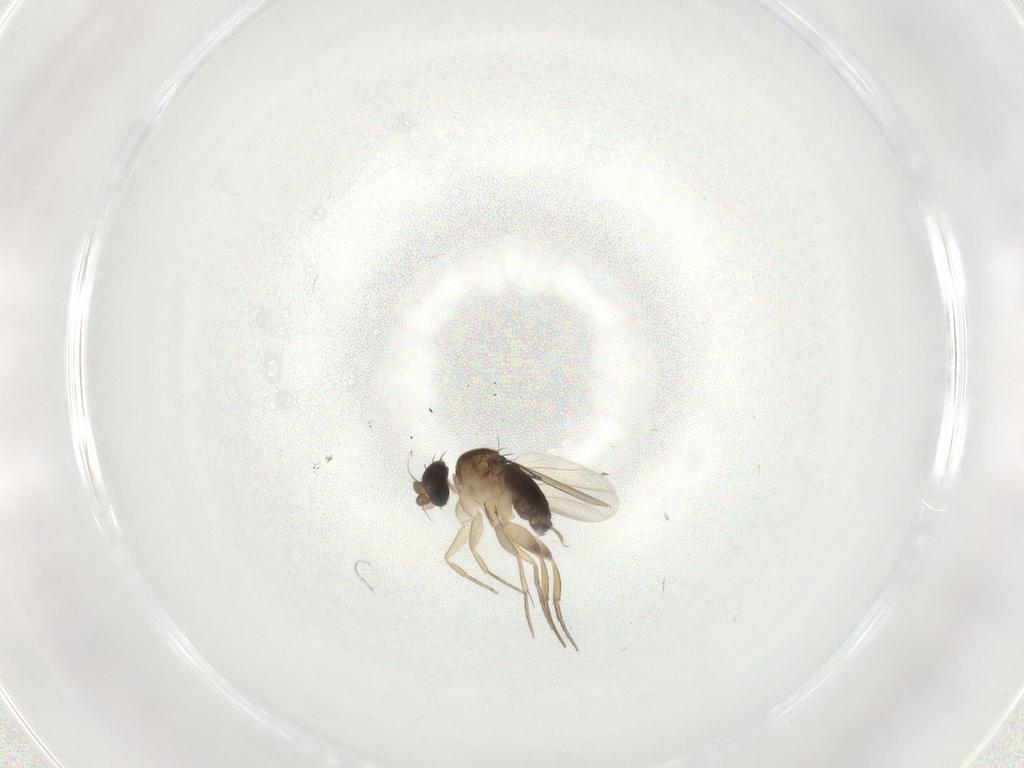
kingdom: Animalia
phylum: Arthropoda
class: Insecta
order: Diptera
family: Phoridae
